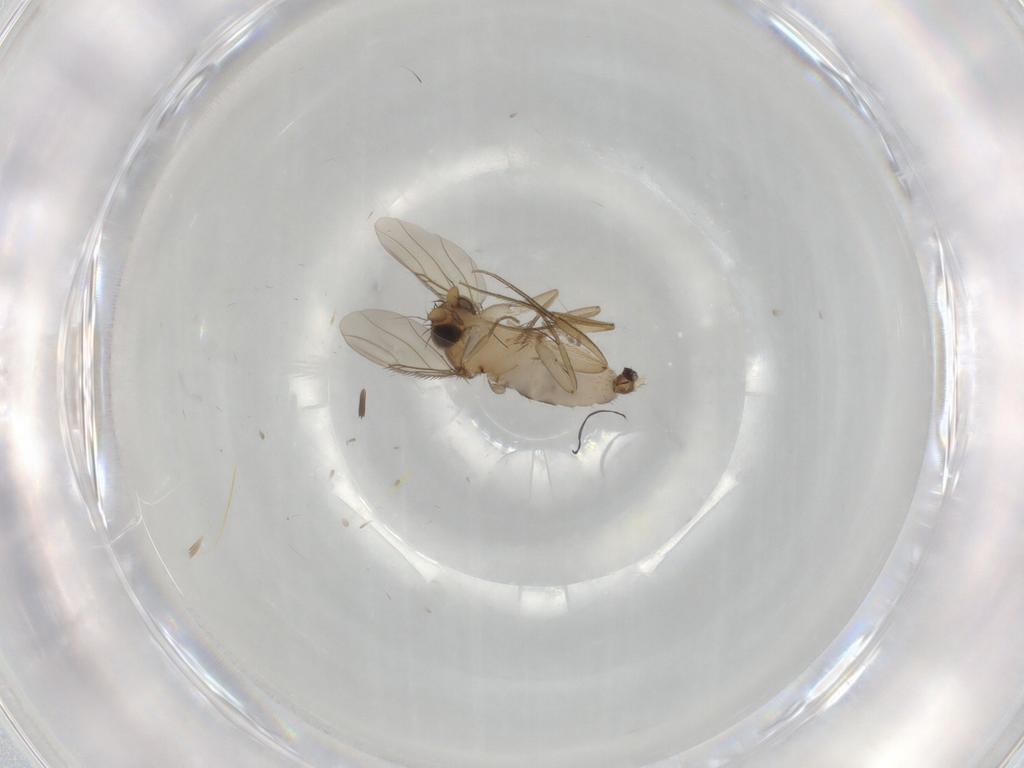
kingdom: Animalia
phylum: Arthropoda
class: Insecta
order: Diptera
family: Phoridae
